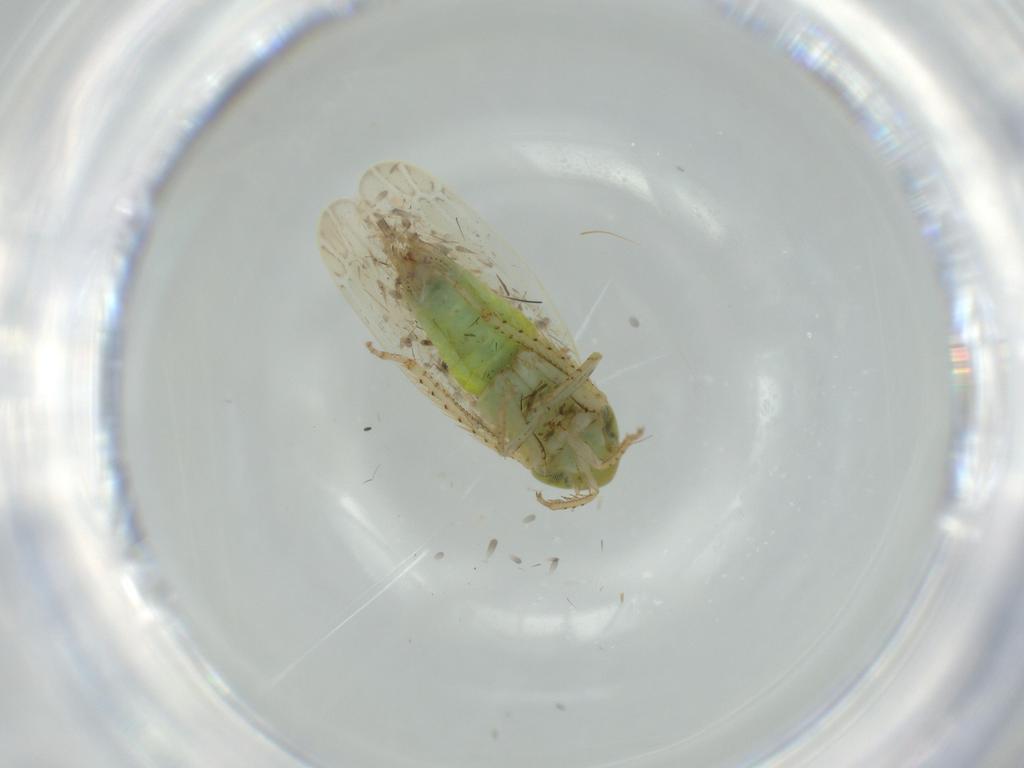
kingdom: Animalia
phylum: Arthropoda
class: Insecta
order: Hemiptera
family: Cicadellidae
